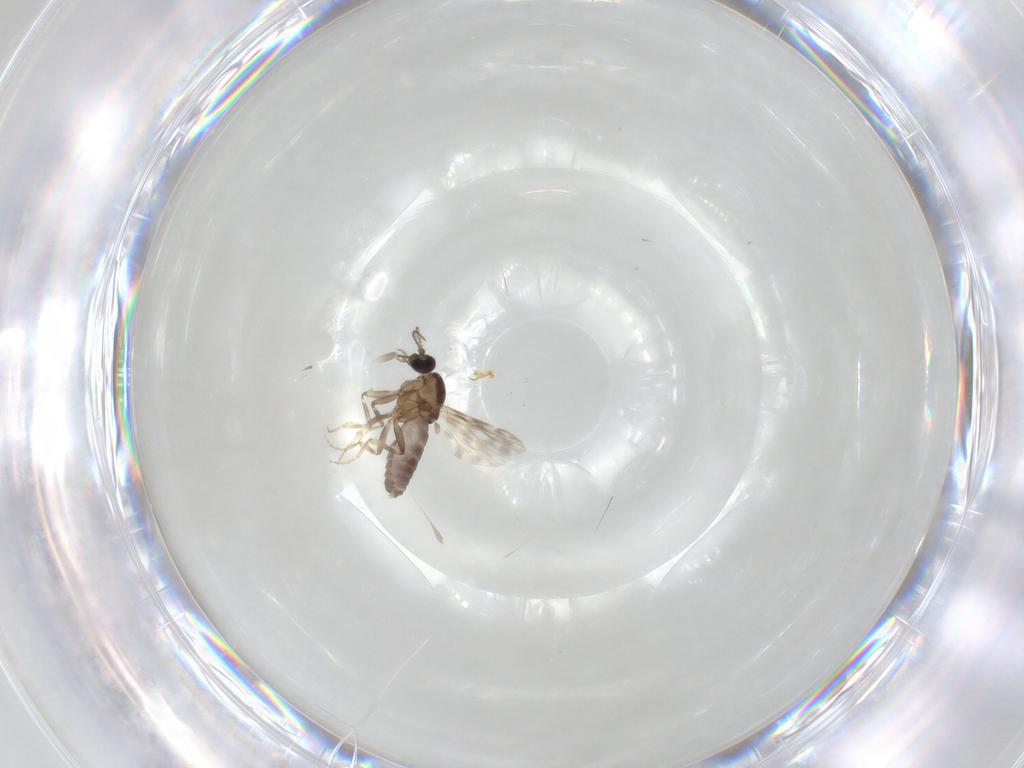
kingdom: Animalia
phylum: Arthropoda
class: Insecta
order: Diptera
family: Ceratopogonidae
